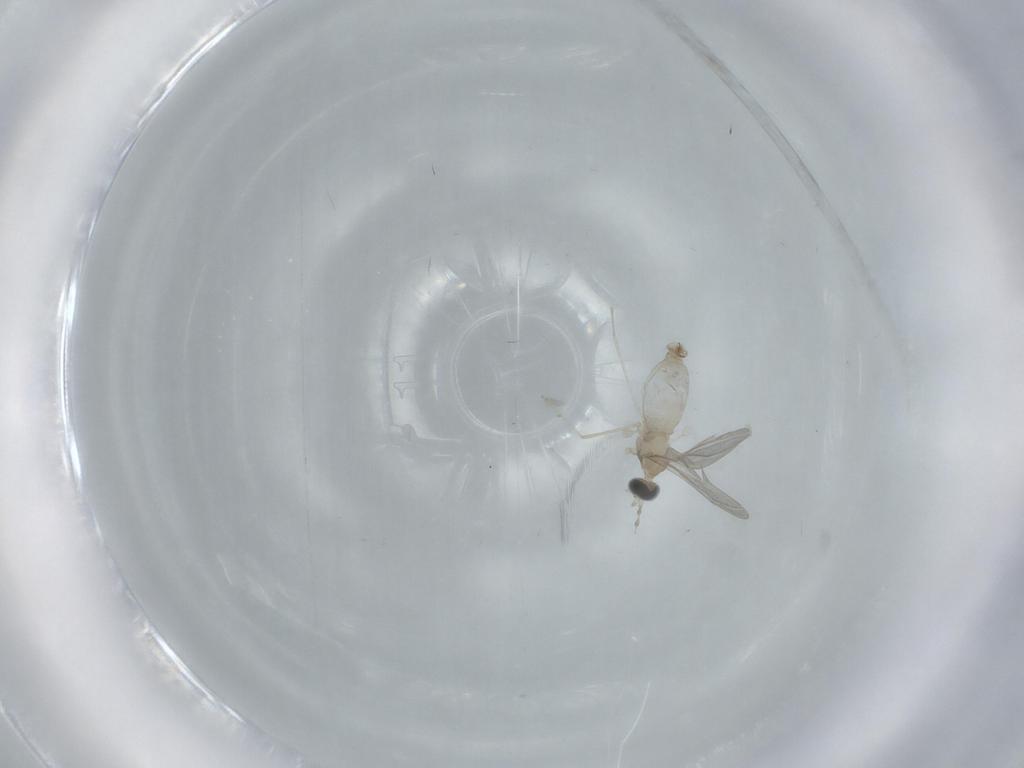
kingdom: Animalia
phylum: Arthropoda
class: Insecta
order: Diptera
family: Cecidomyiidae
